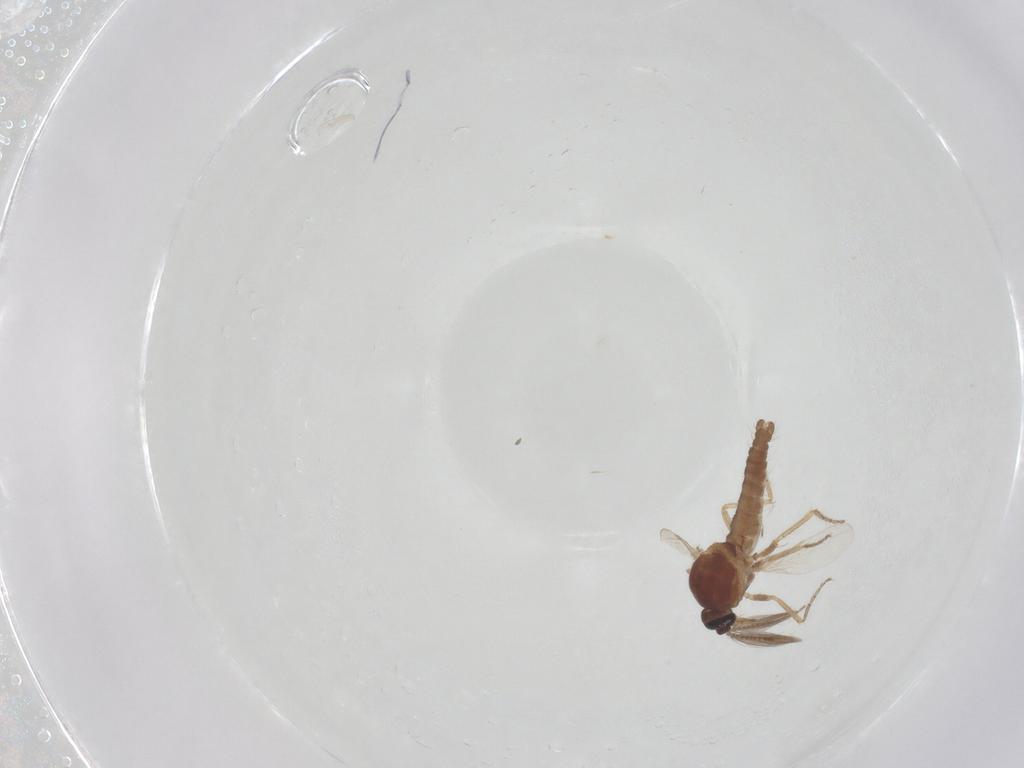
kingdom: Animalia
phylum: Arthropoda
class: Insecta
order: Diptera
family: Ceratopogonidae
